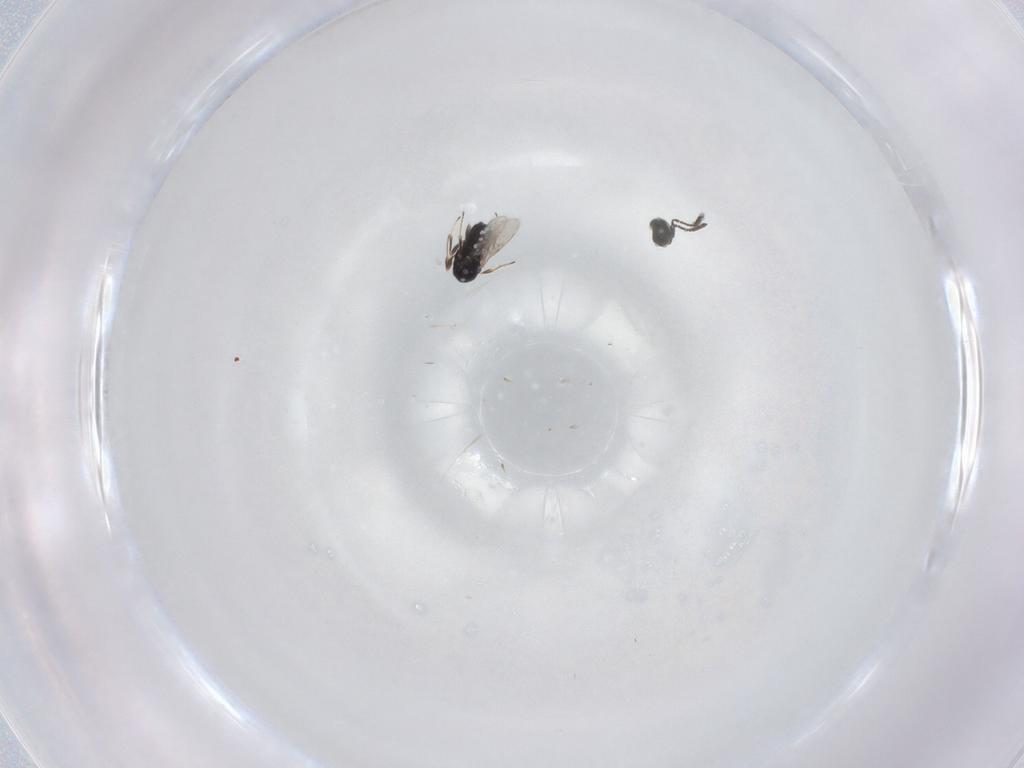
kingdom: Animalia
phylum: Arthropoda
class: Insecta
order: Hymenoptera
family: Scelionidae
